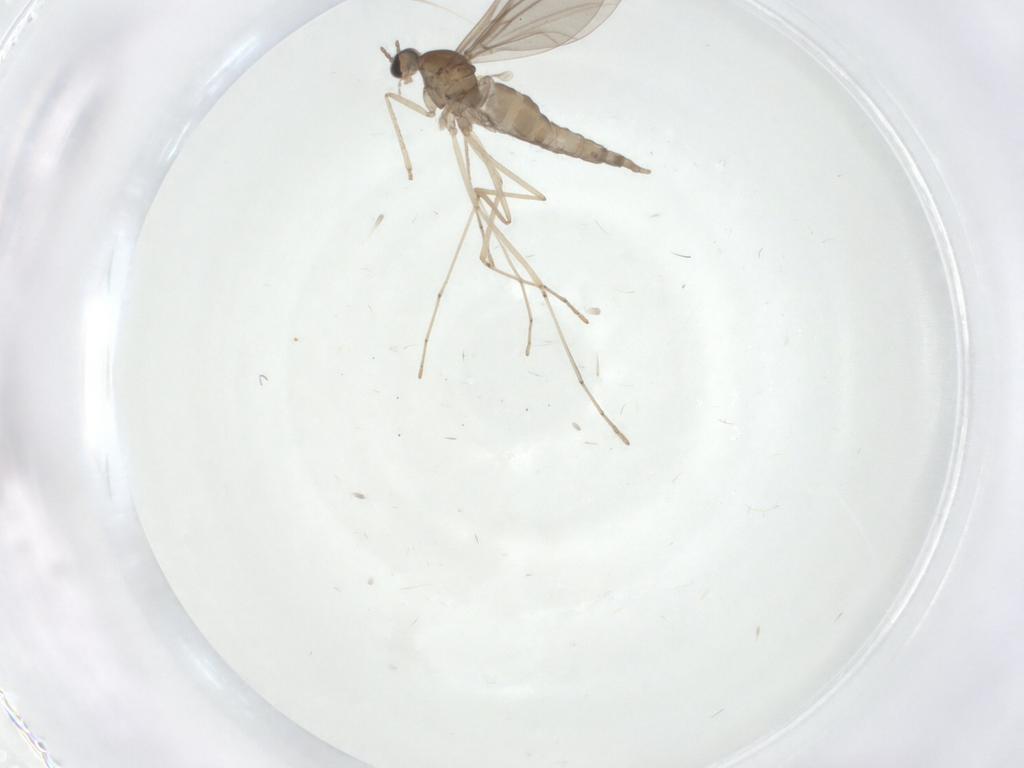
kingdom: Animalia
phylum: Arthropoda
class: Insecta
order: Diptera
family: Cecidomyiidae
